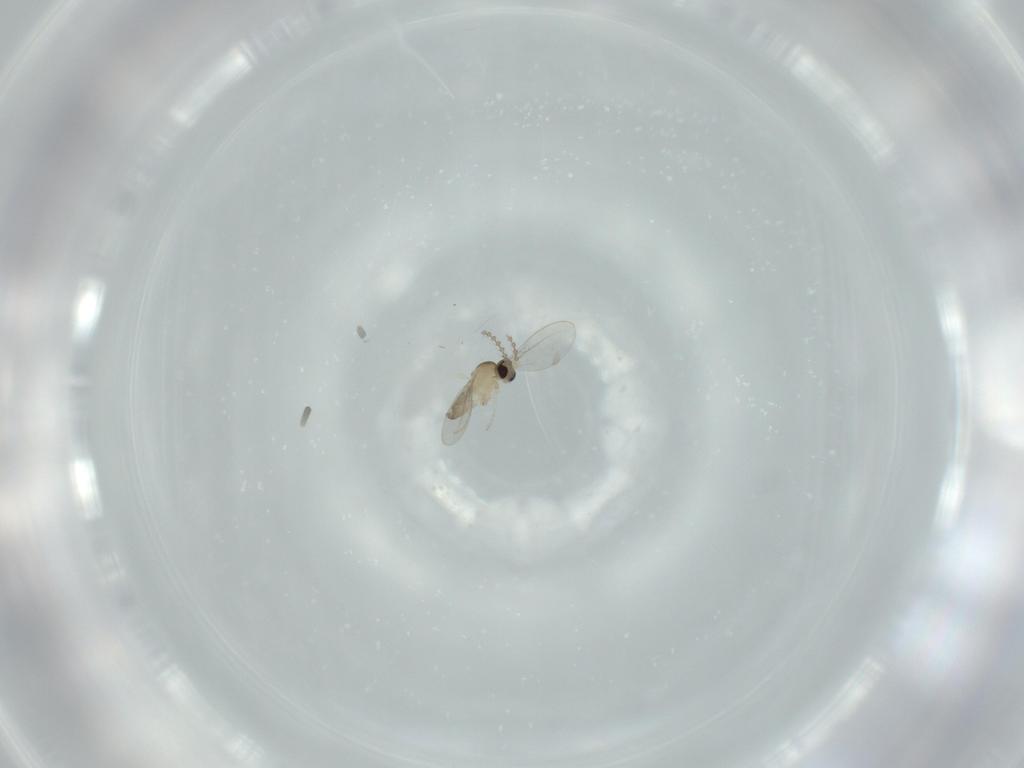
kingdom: Animalia
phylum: Arthropoda
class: Insecta
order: Diptera
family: Cecidomyiidae
